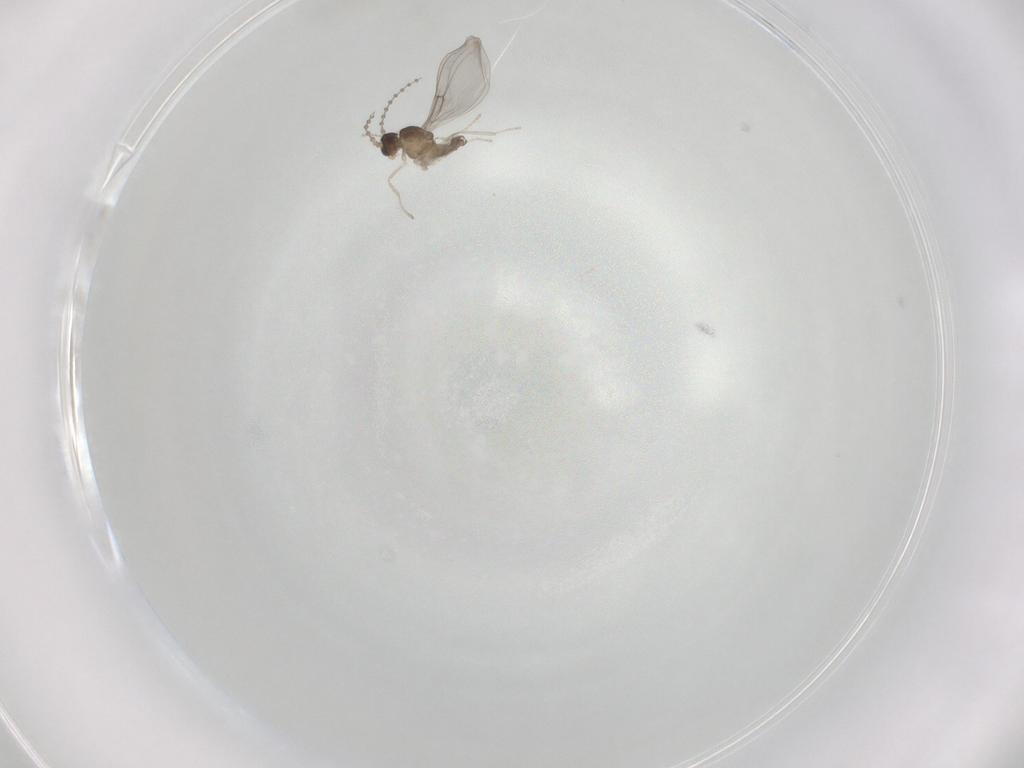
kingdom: Animalia
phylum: Arthropoda
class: Insecta
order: Diptera
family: Cecidomyiidae
